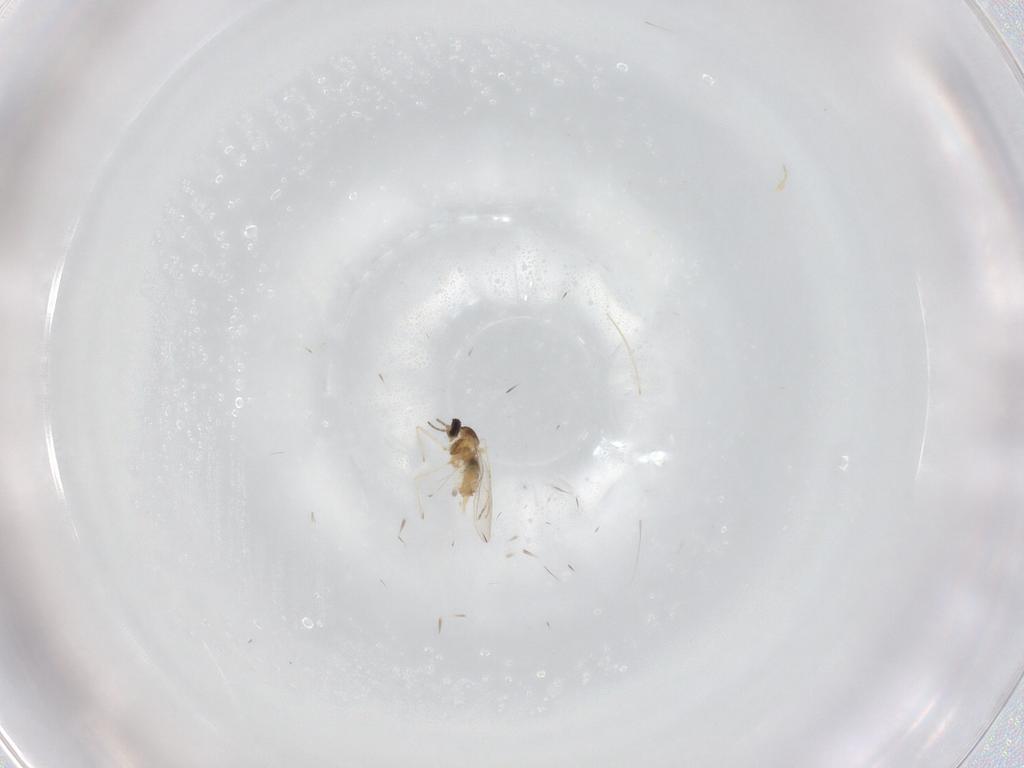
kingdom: Animalia
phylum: Arthropoda
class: Insecta
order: Diptera
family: Cecidomyiidae
